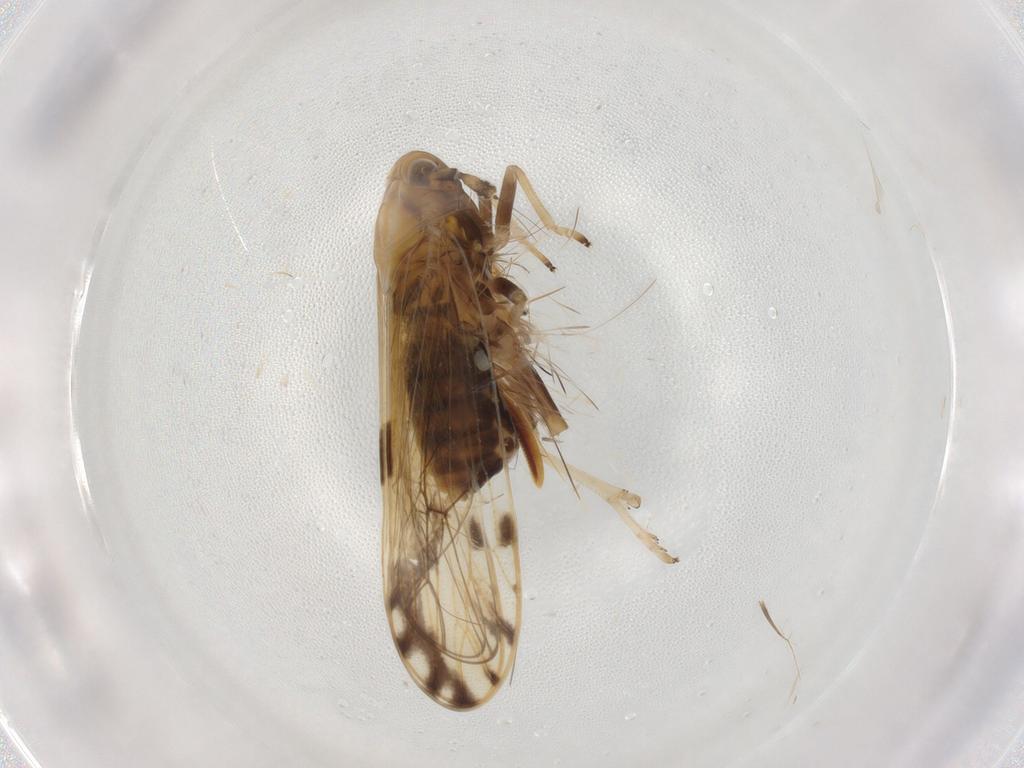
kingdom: Animalia
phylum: Arthropoda
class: Insecta
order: Hemiptera
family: Delphacidae
